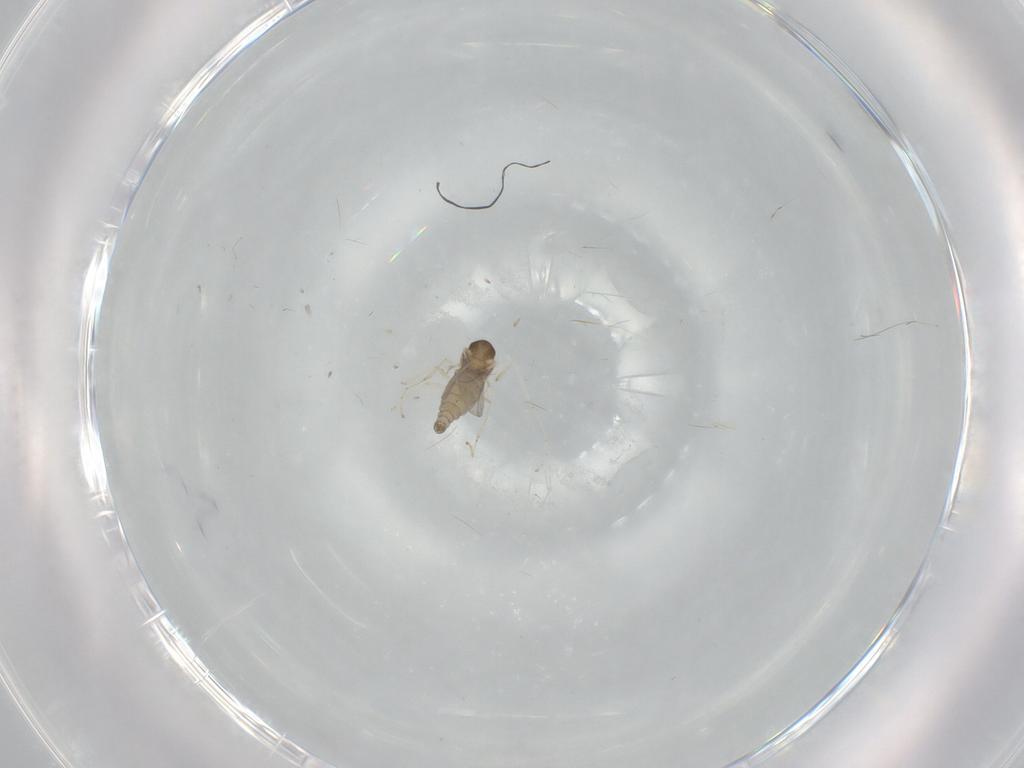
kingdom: Animalia
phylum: Arthropoda
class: Insecta
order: Diptera
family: Cecidomyiidae
